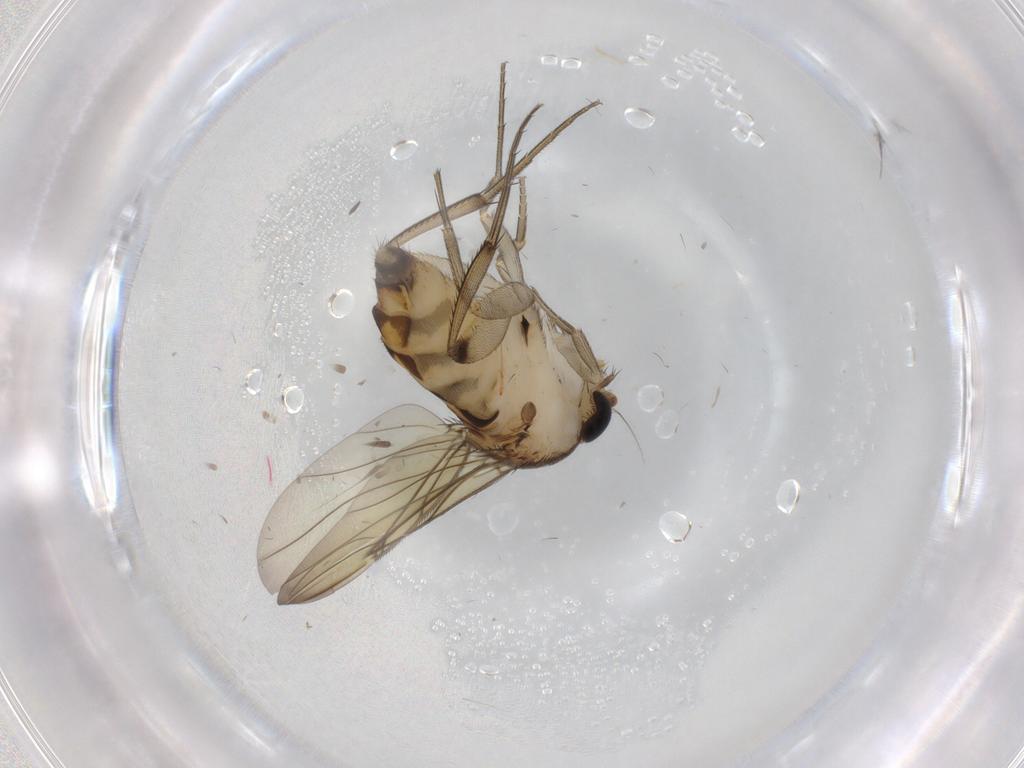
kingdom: Animalia
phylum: Arthropoda
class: Insecta
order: Diptera
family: Phoridae
